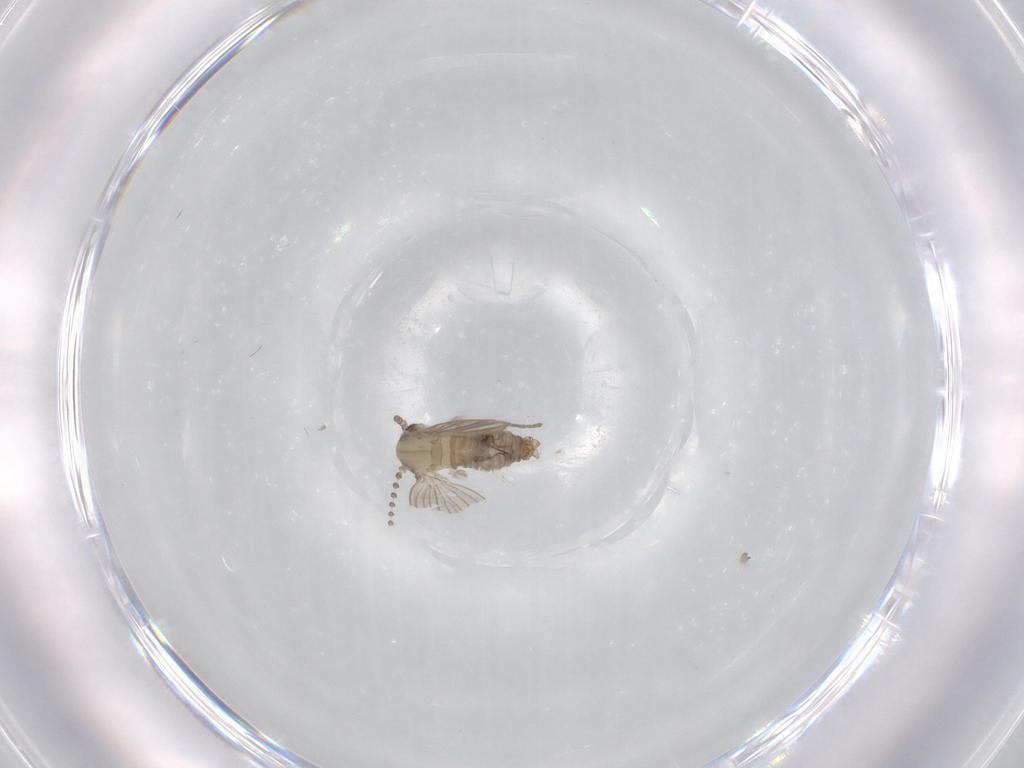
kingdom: Animalia
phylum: Arthropoda
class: Insecta
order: Diptera
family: Psychodidae
